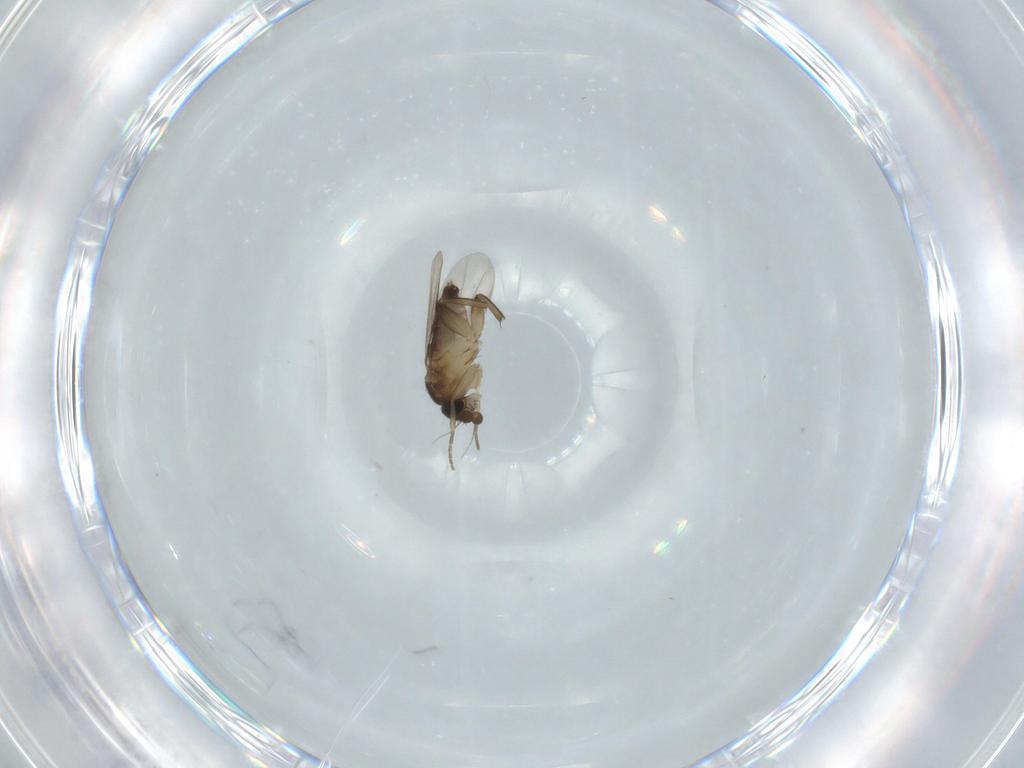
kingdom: Animalia
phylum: Arthropoda
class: Insecta
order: Diptera
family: Phoridae
